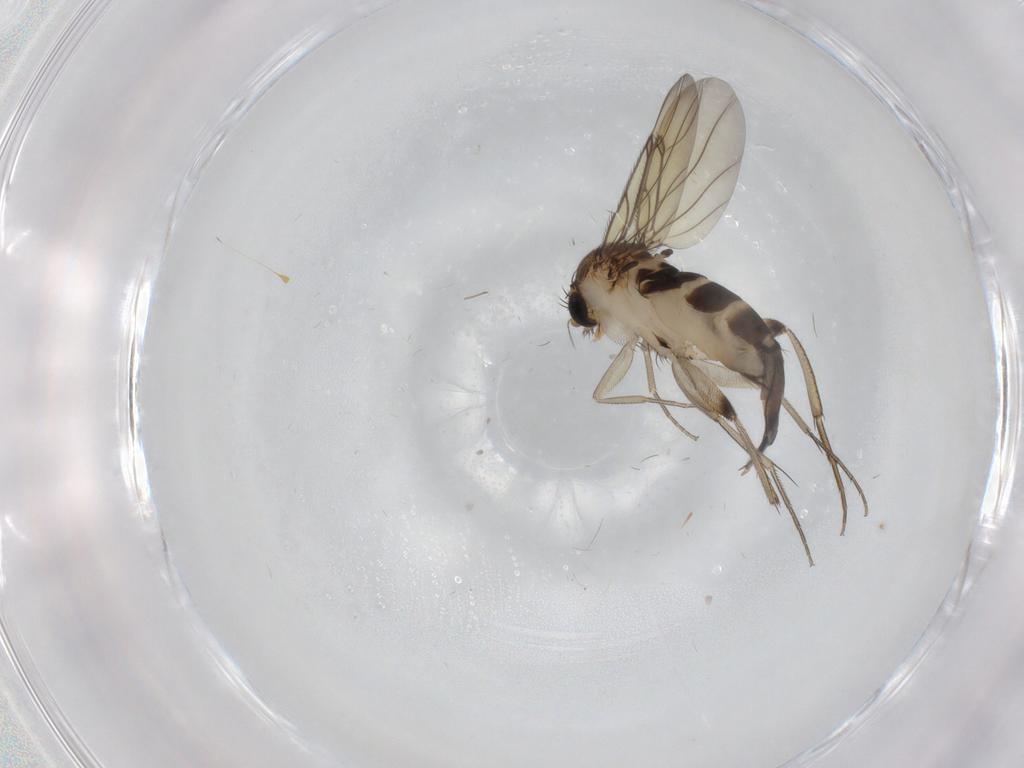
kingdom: Animalia
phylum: Arthropoda
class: Insecta
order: Diptera
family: Phoridae
